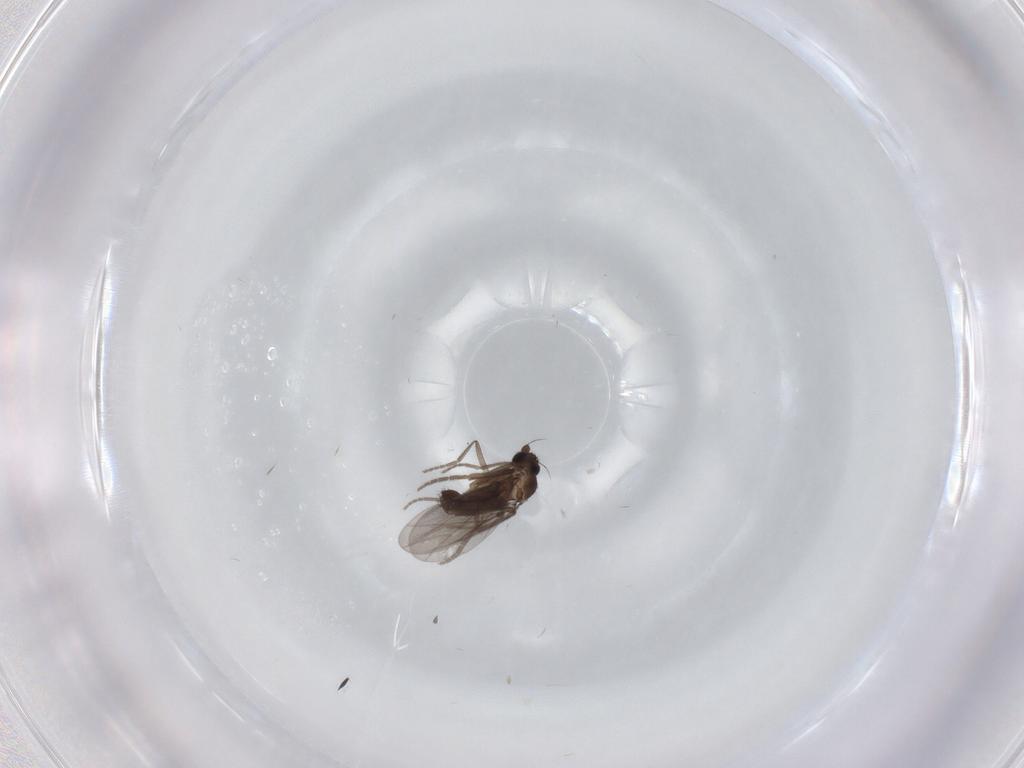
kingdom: Animalia
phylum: Arthropoda
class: Insecta
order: Diptera
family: Phoridae
